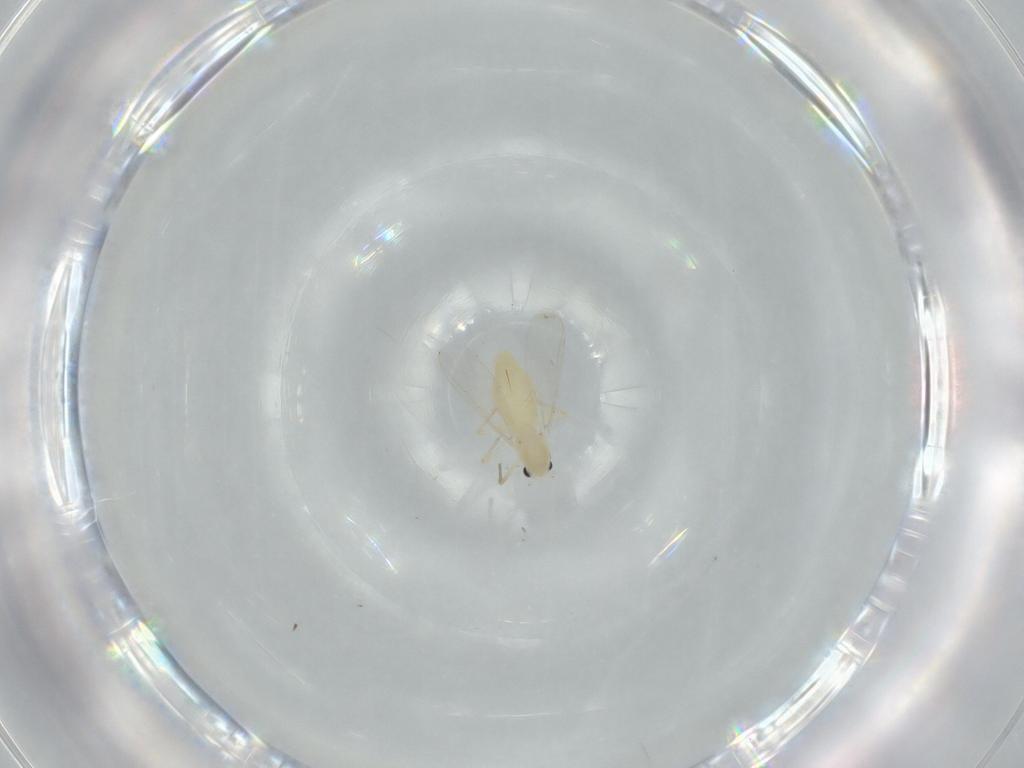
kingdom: Animalia
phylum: Arthropoda
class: Insecta
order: Diptera
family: Chironomidae
